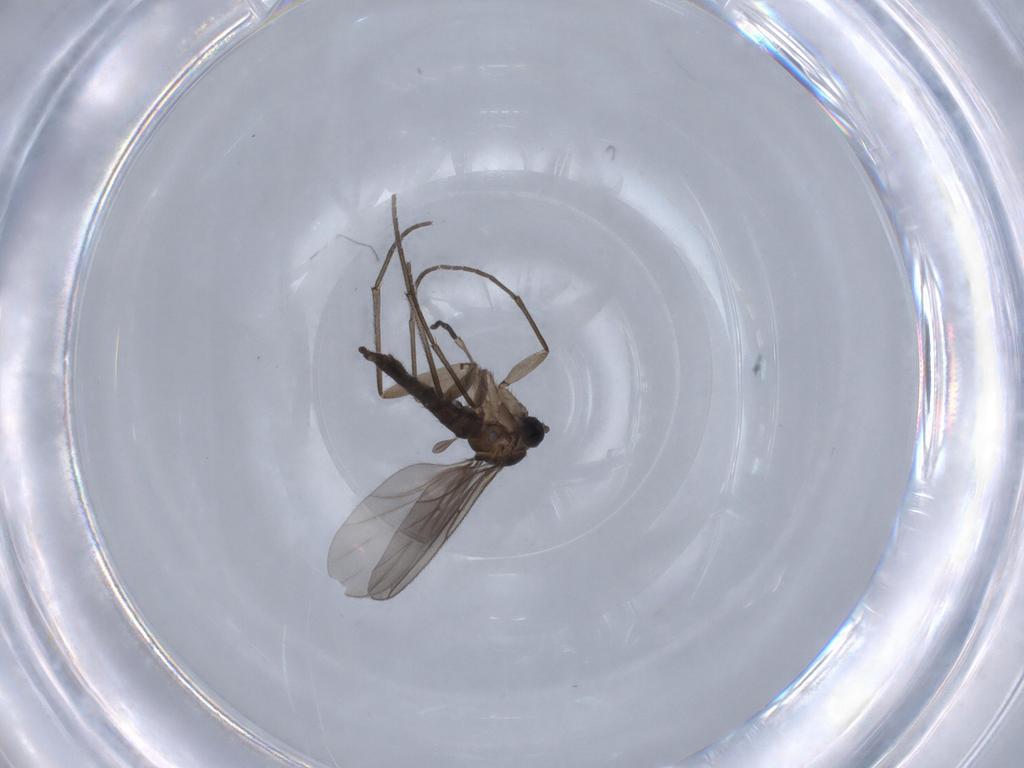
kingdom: Animalia
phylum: Arthropoda
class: Insecta
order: Diptera
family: Sciaridae
